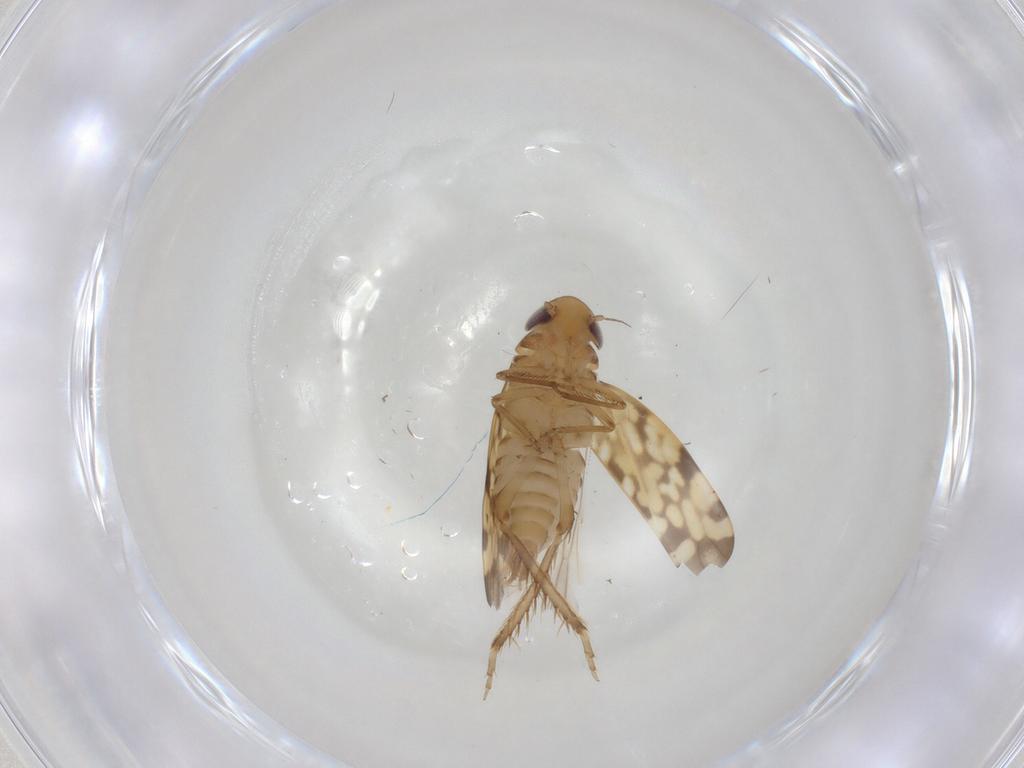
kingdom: Animalia
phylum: Arthropoda
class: Insecta
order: Hemiptera
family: Cicadellidae
